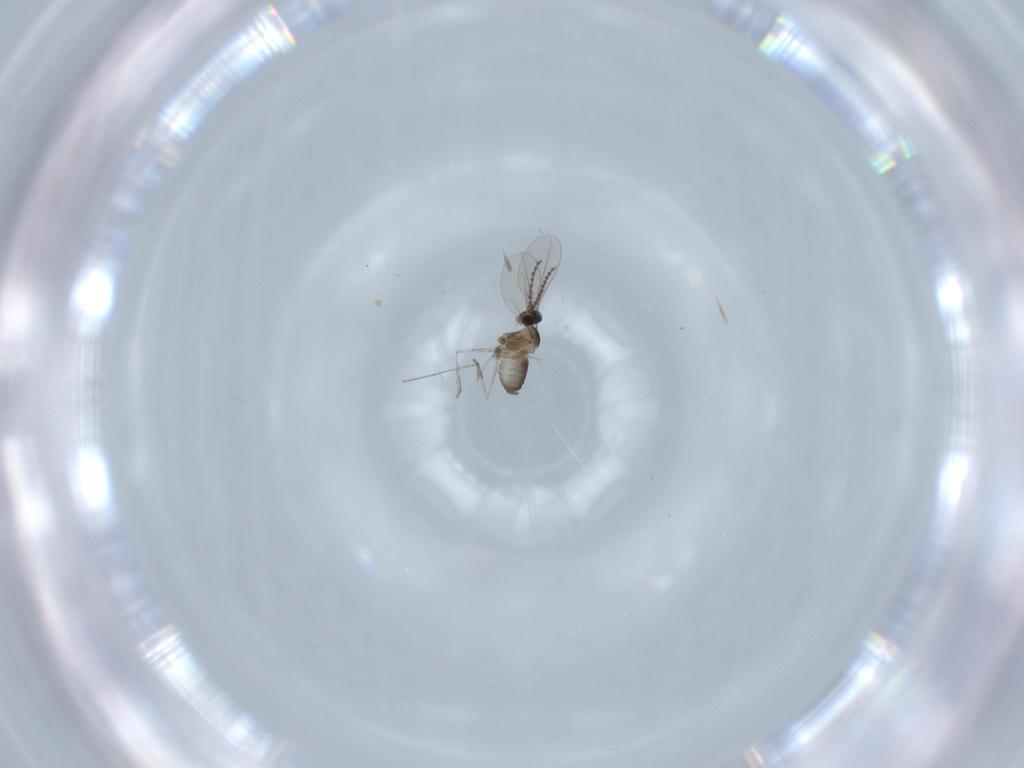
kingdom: Animalia
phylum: Arthropoda
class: Insecta
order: Diptera
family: Cecidomyiidae
